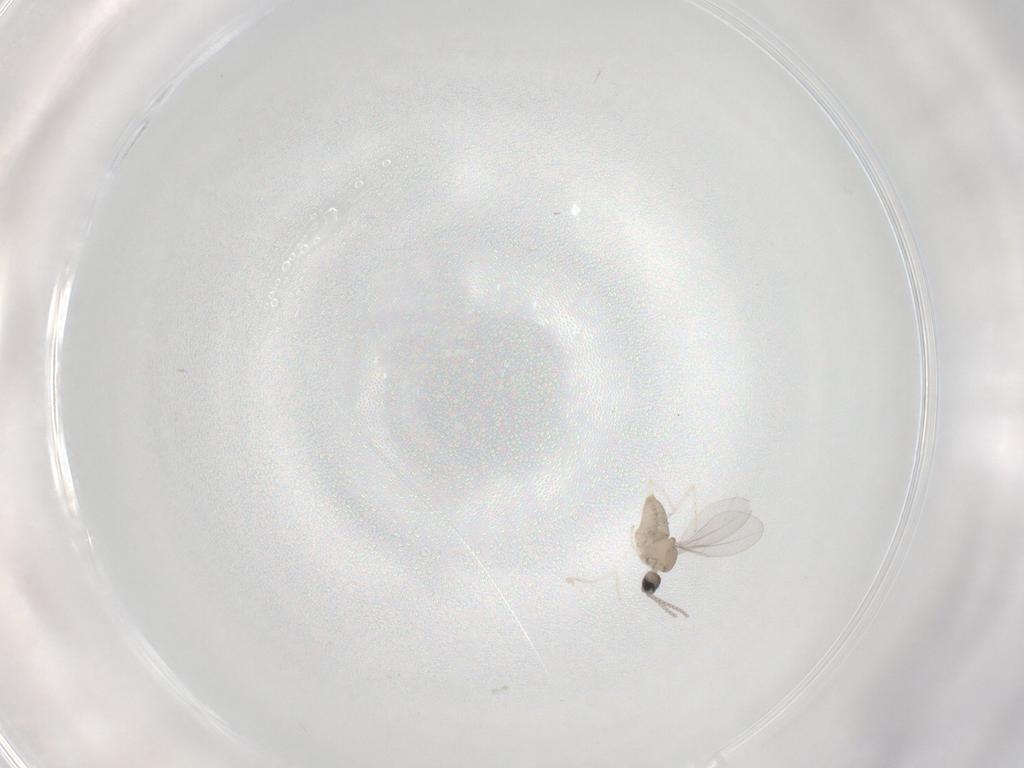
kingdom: Animalia
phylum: Arthropoda
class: Insecta
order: Diptera
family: Cecidomyiidae
